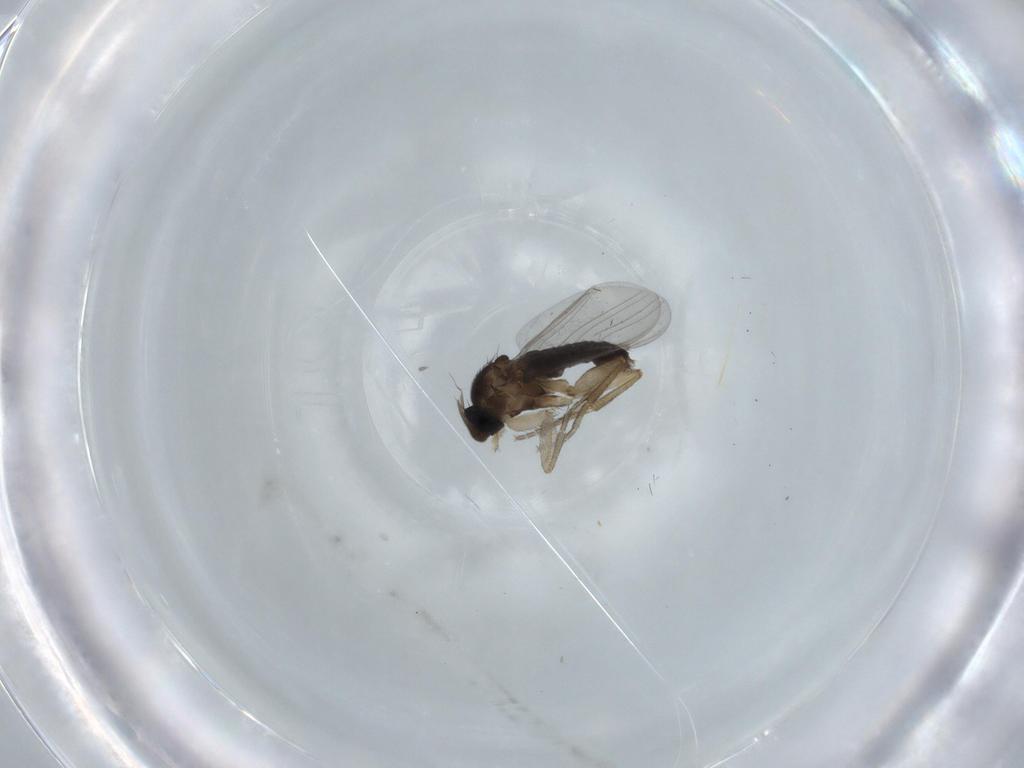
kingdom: Animalia
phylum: Arthropoda
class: Insecta
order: Diptera
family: Phoridae
